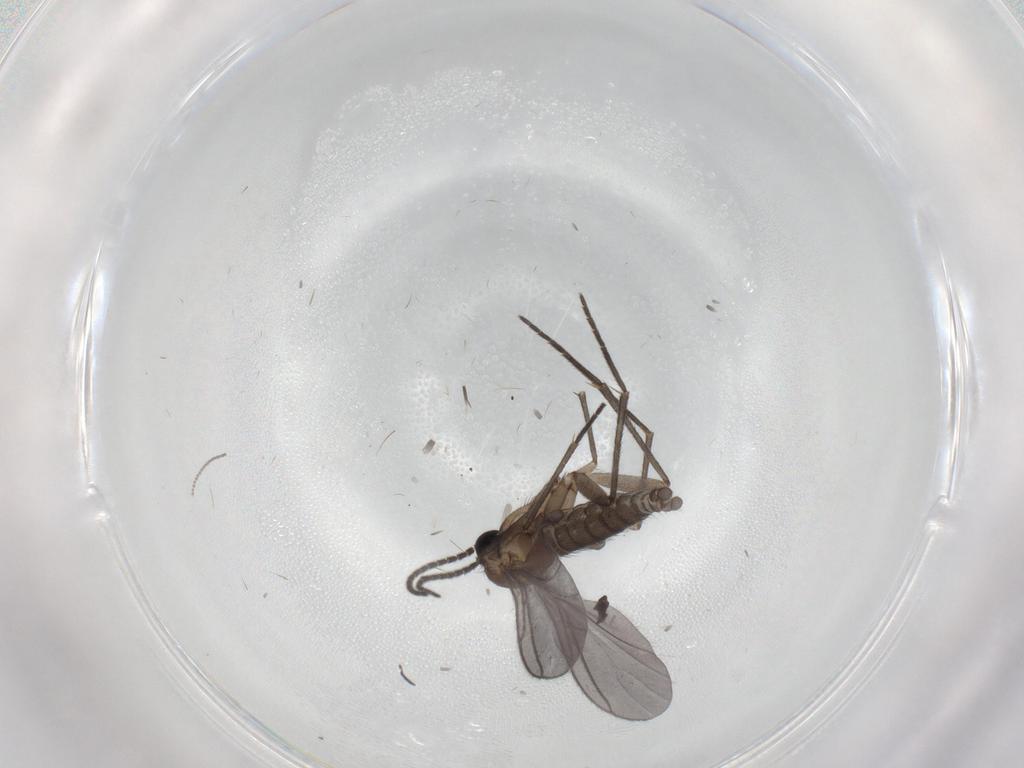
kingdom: Animalia
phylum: Arthropoda
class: Insecta
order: Diptera
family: Sciaridae
